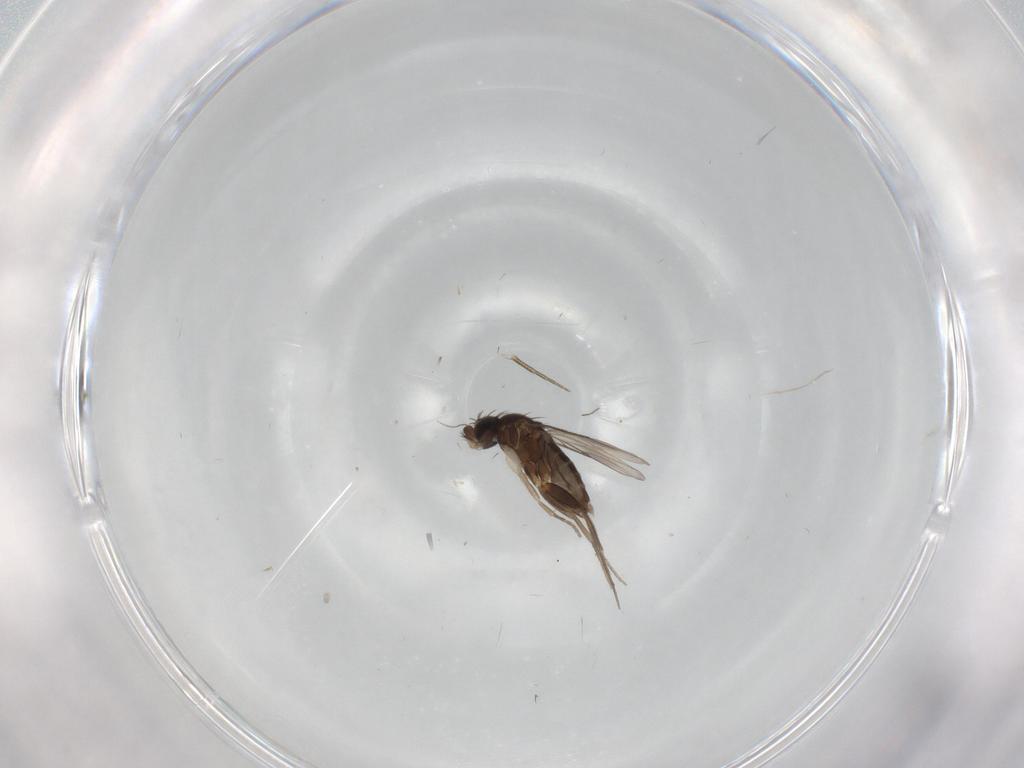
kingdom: Animalia
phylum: Arthropoda
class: Insecta
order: Diptera
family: Phoridae
